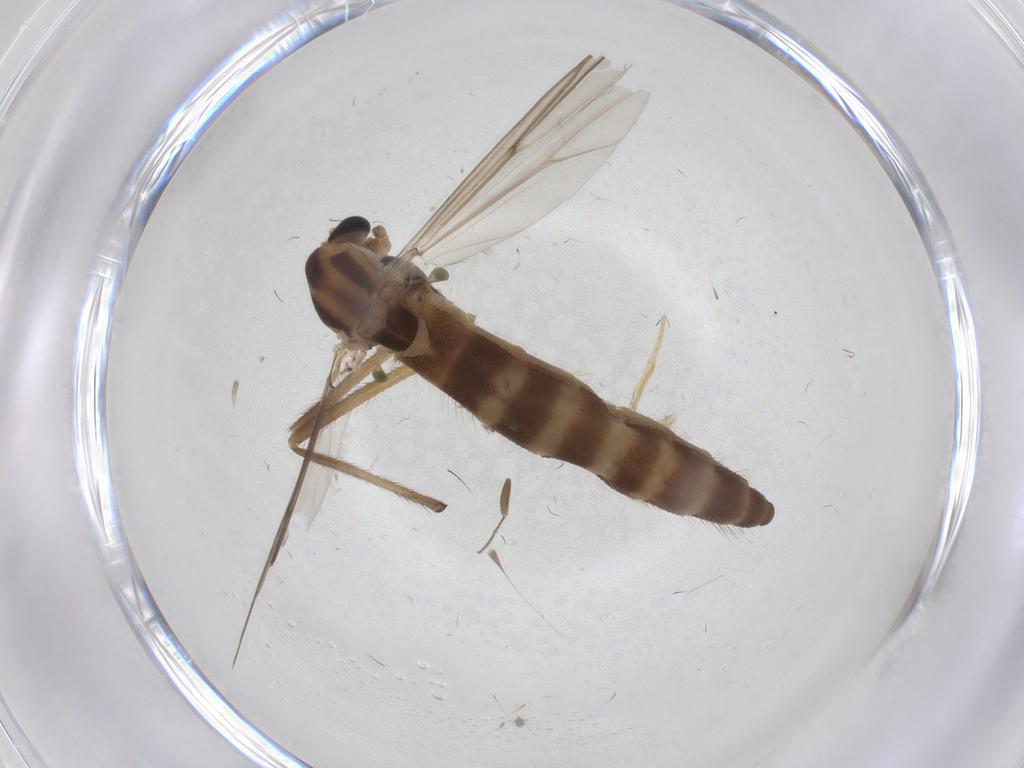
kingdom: Animalia
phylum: Arthropoda
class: Insecta
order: Diptera
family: Chironomidae
